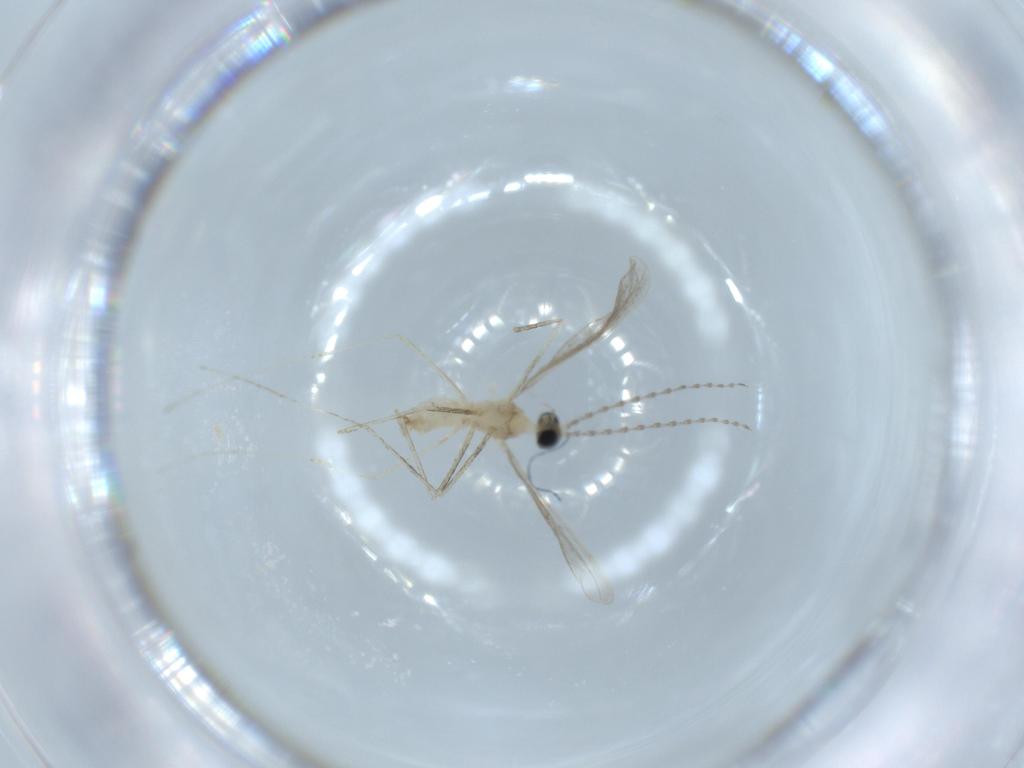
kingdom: Animalia
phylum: Arthropoda
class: Insecta
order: Diptera
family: Cecidomyiidae
